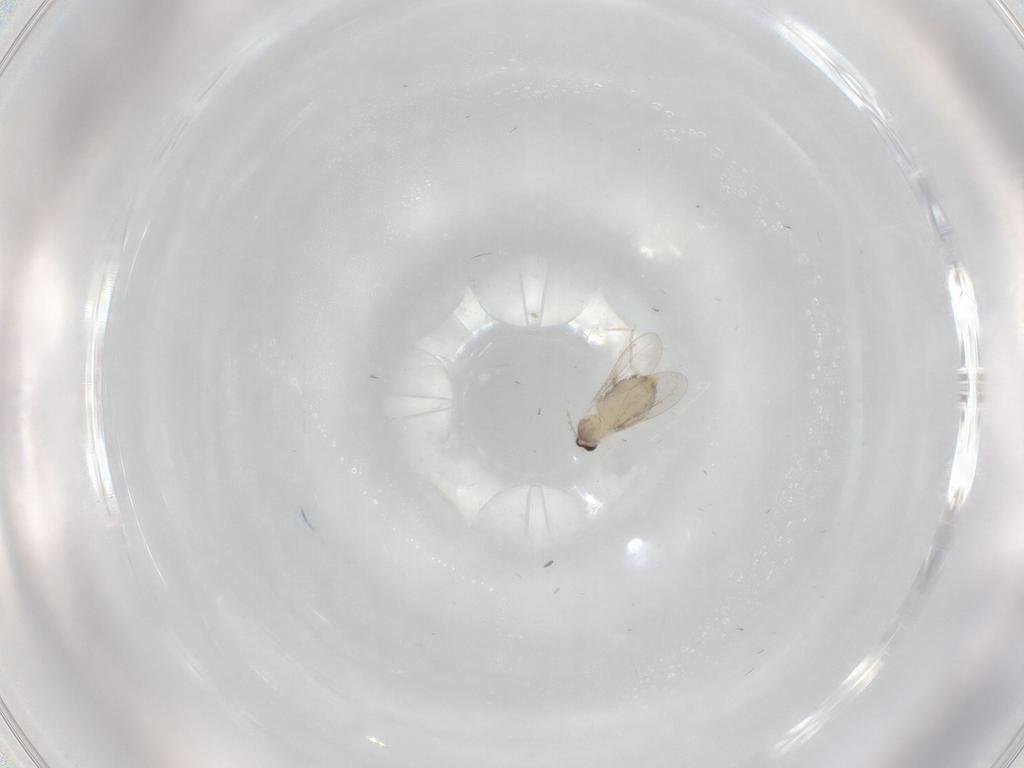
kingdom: Animalia
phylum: Arthropoda
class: Insecta
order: Diptera
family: Cecidomyiidae
